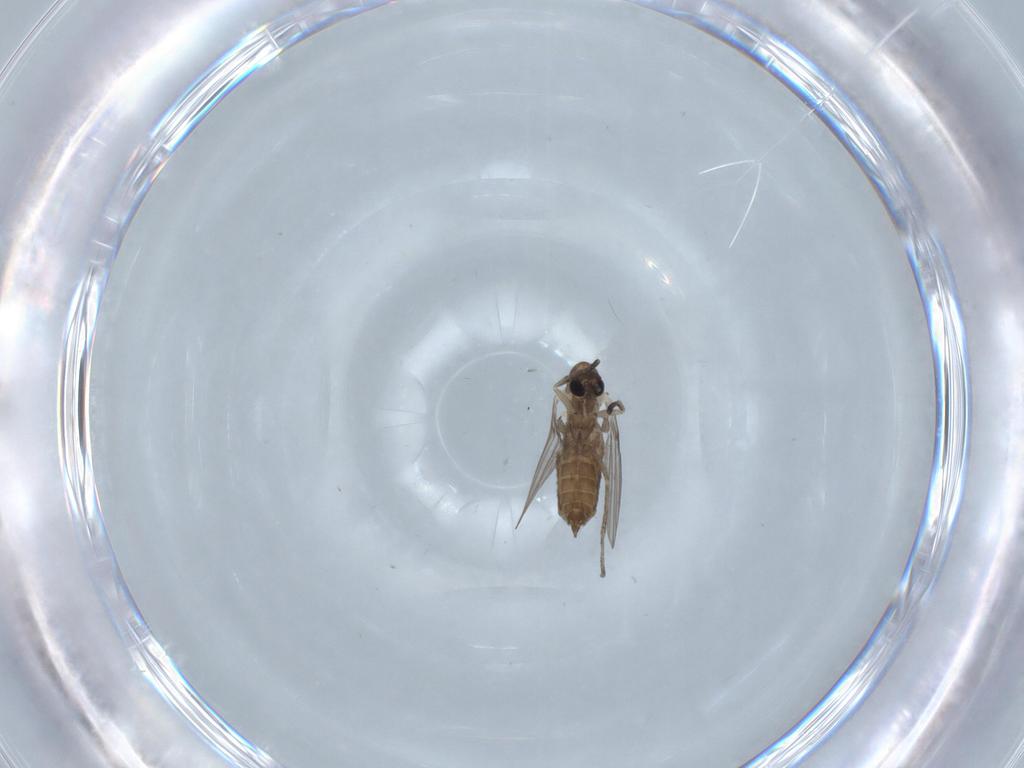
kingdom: Animalia
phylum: Arthropoda
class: Insecta
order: Diptera
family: Psychodidae
